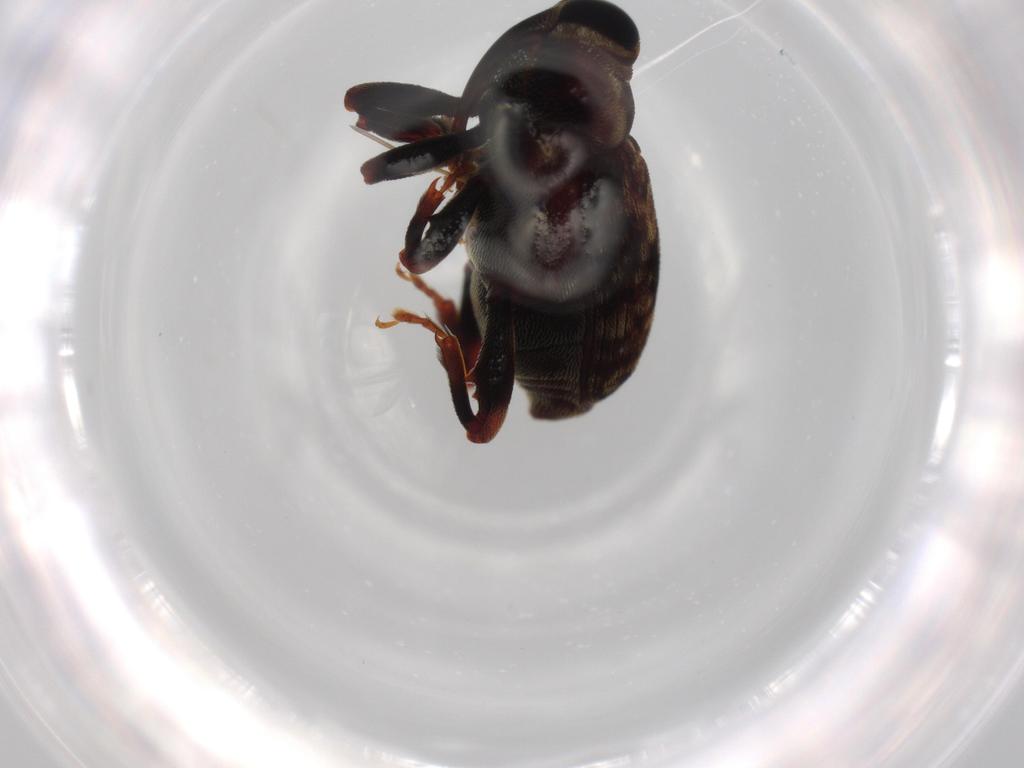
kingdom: Animalia
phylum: Arthropoda
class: Insecta
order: Coleoptera
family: Curculionidae
